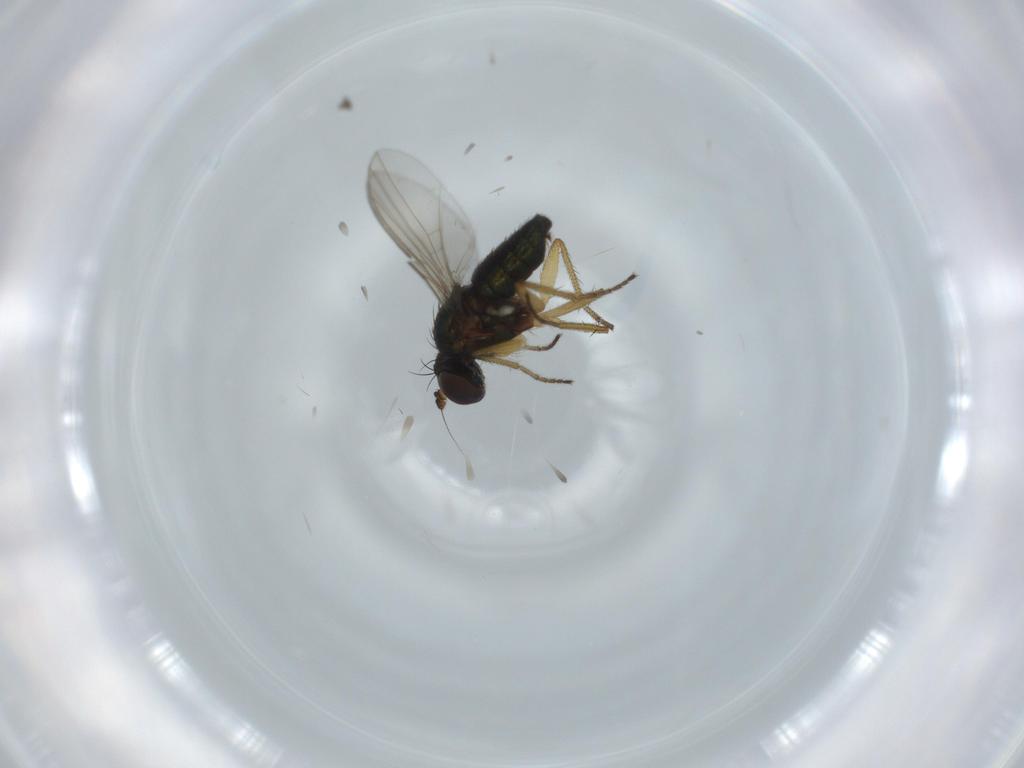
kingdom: Animalia
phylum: Arthropoda
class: Insecta
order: Diptera
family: Dolichopodidae
